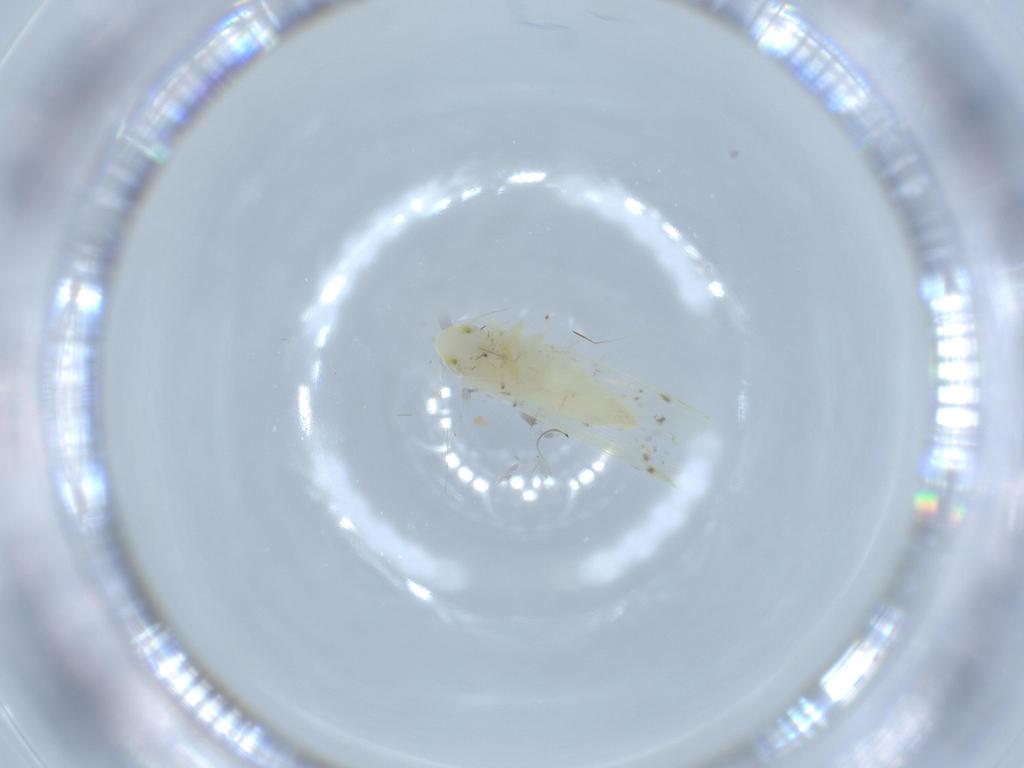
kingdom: Animalia
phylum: Arthropoda
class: Insecta
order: Hemiptera
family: Cicadellidae
